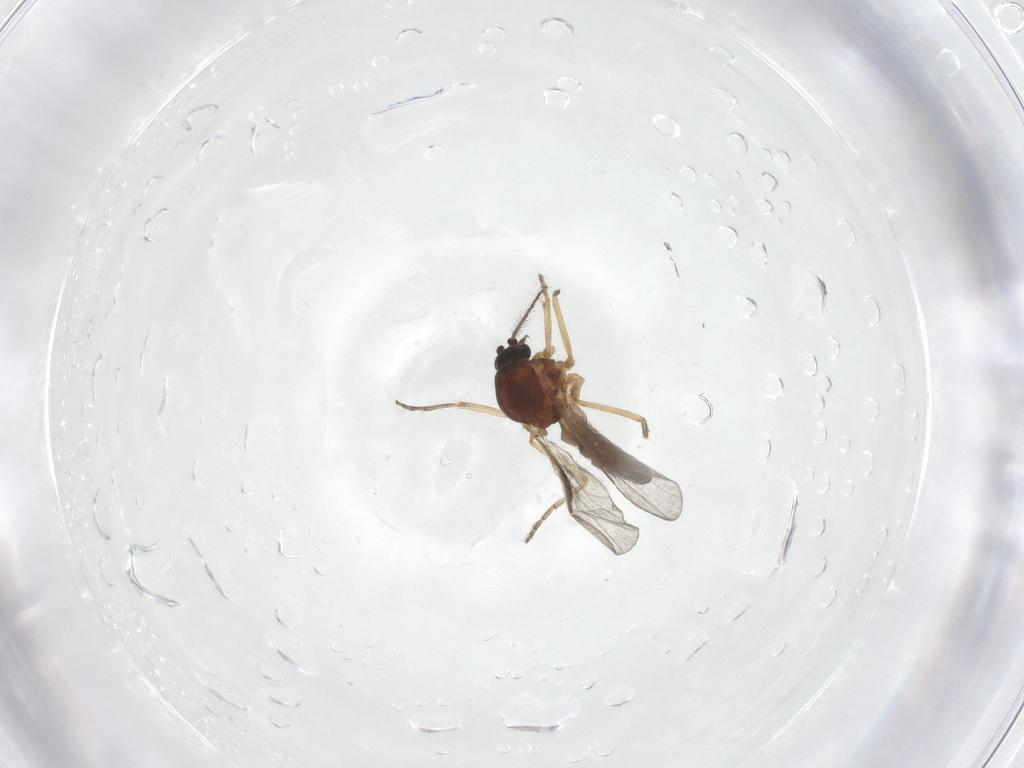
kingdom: Animalia
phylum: Arthropoda
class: Insecta
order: Diptera
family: Ceratopogonidae
